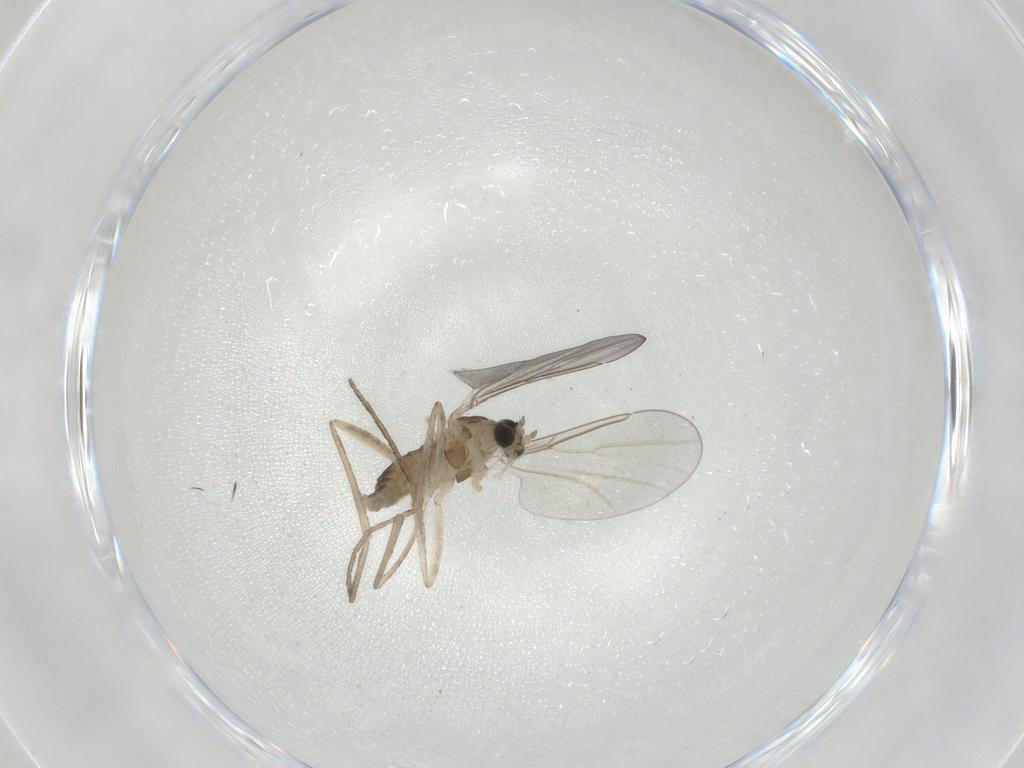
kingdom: Animalia
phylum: Arthropoda
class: Insecta
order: Diptera
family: Cecidomyiidae
